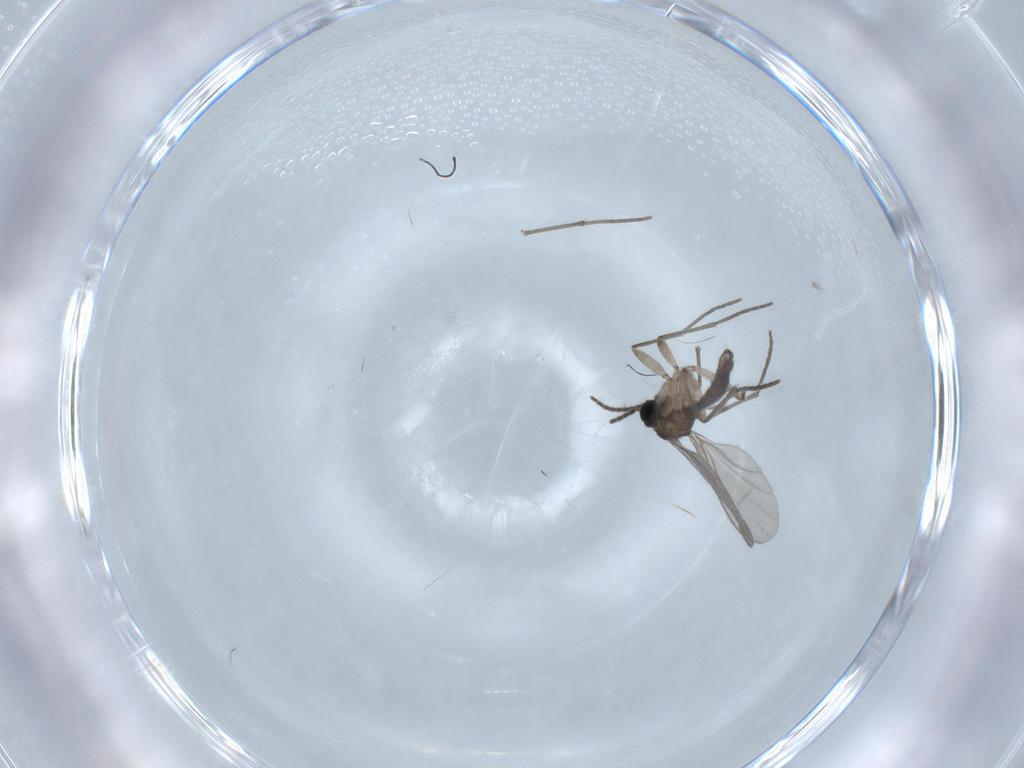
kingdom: Animalia
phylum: Arthropoda
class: Insecta
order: Diptera
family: Sciaridae
